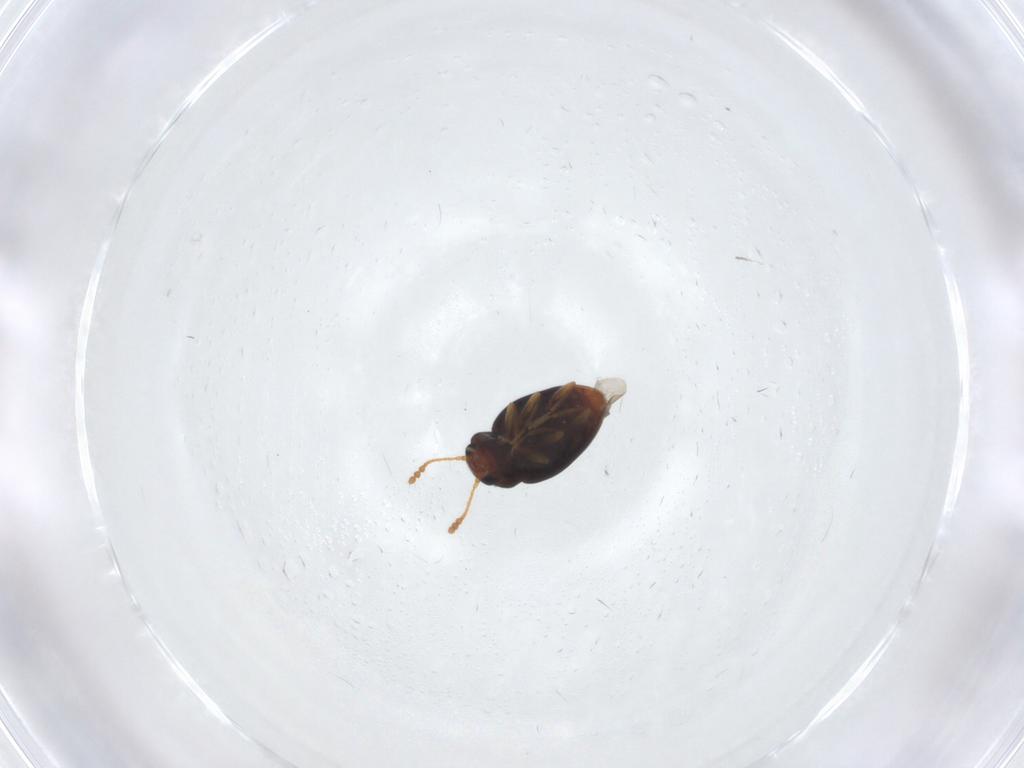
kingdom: Animalia
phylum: Arthropoda
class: Insecta
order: Coleoptera
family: Erotylidae
